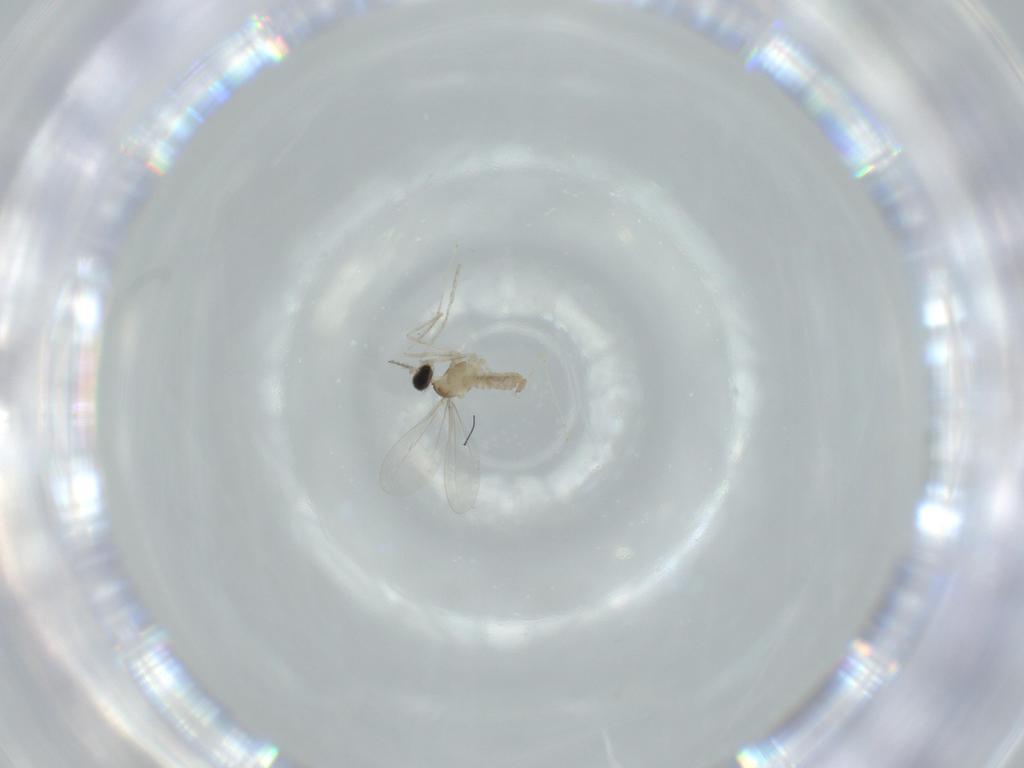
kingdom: Animalia
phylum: Arthropoda
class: Insecta
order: Diptera
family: Cecidomyiidae
